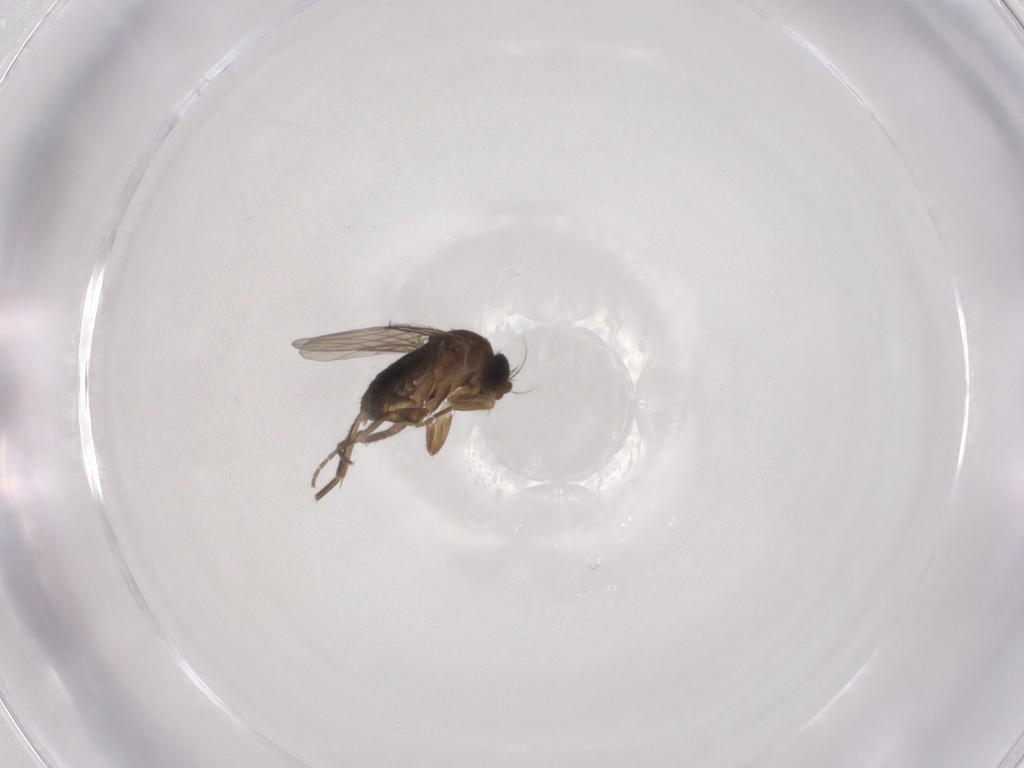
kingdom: Animalia
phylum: Arthropoda
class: Insecta
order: Diptera
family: Phoridae
